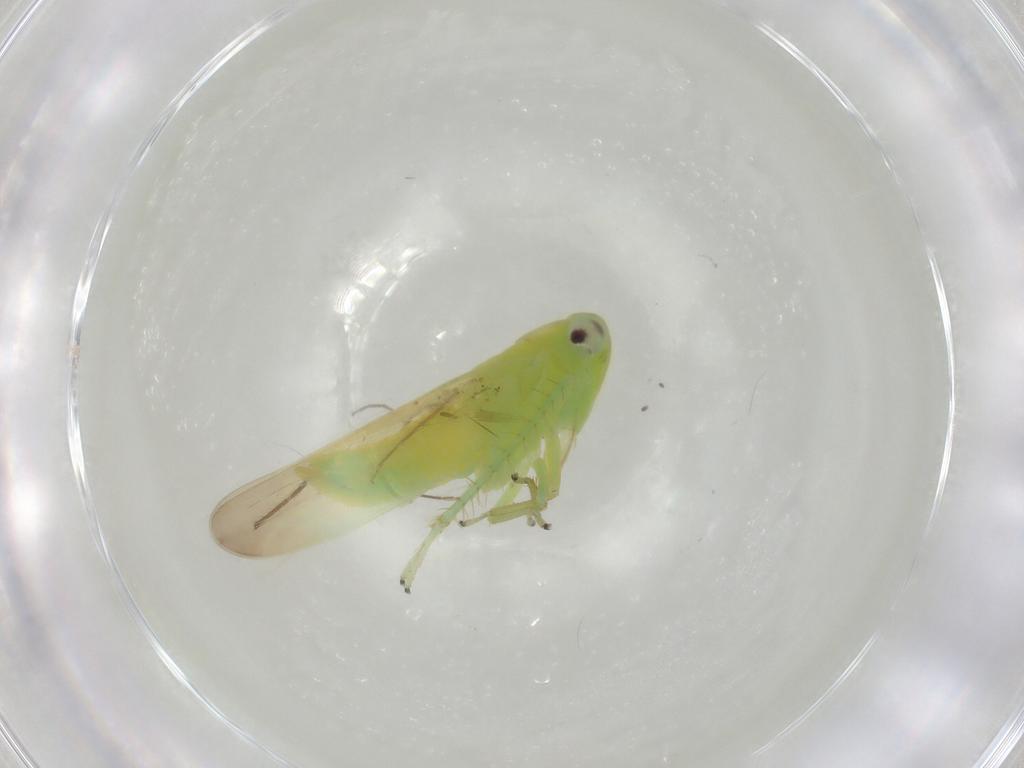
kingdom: Animalia
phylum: Arthropoda
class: Insecta
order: Hemiptera
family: Cicadellidae
